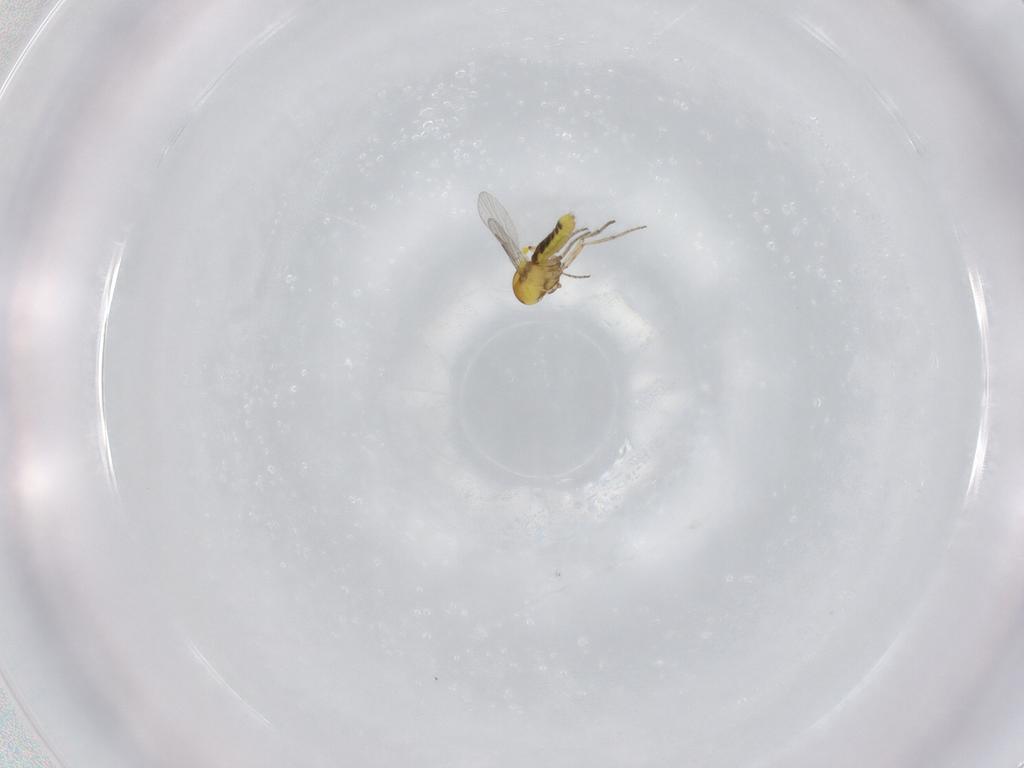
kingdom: Animalia
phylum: Arthropoda
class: Insecta
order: Diptera
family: Ceratopogonidae
